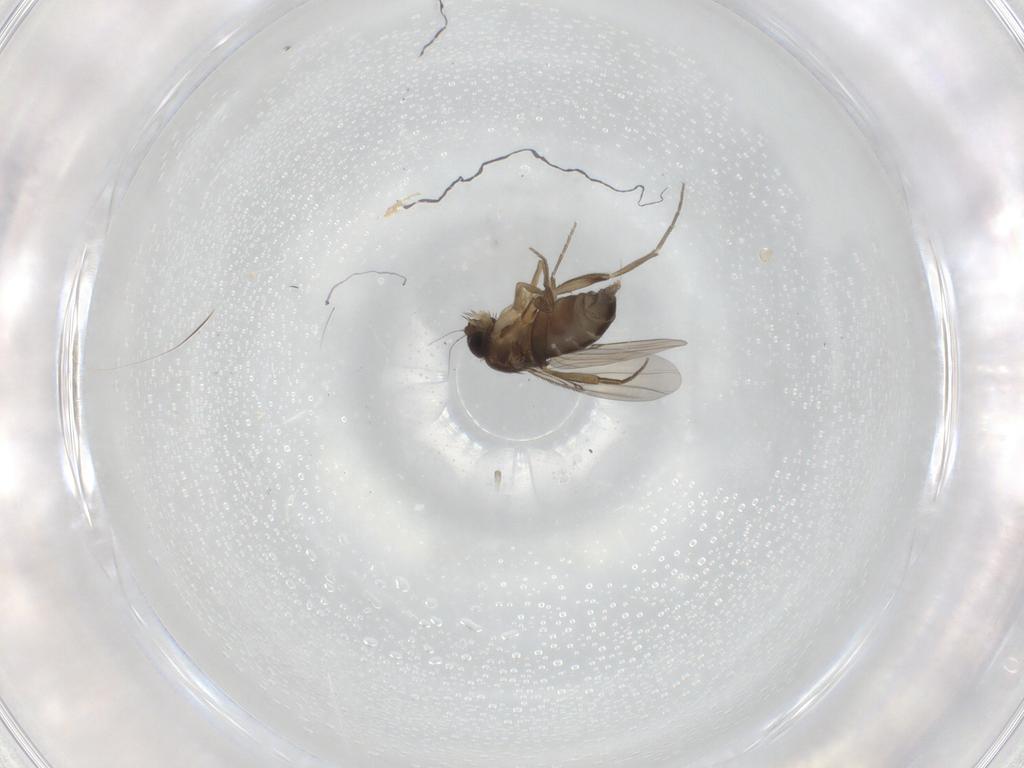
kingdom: Animalia
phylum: Arthropoda
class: Insecta
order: Diptera
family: Phoridae
